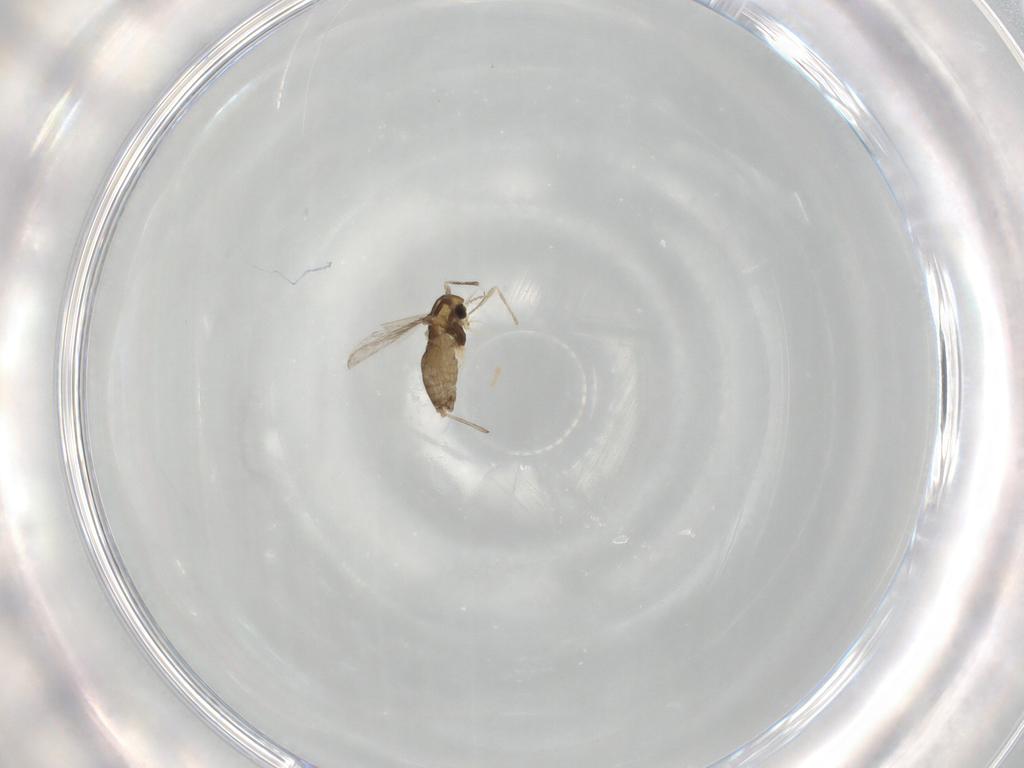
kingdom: Animalia
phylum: Arthropoda
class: Insecta
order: Diptera
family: Chironomidae
